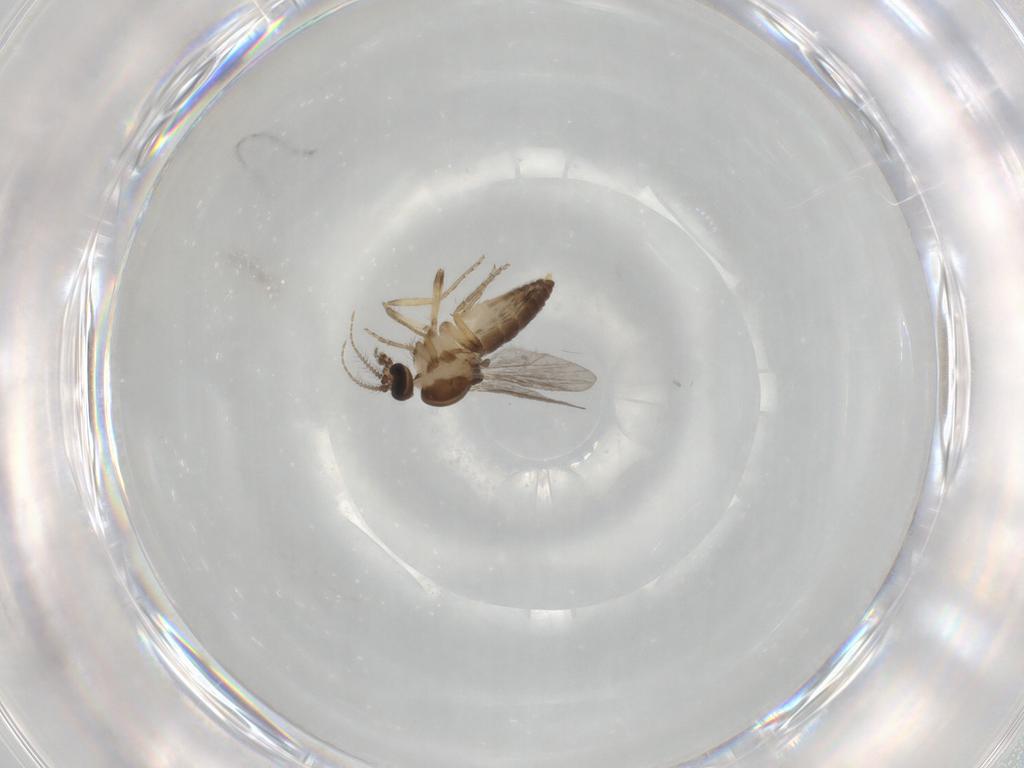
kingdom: Animalia
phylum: Arthropoda
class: Insecta
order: Diptera
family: Ceratopogonidae
